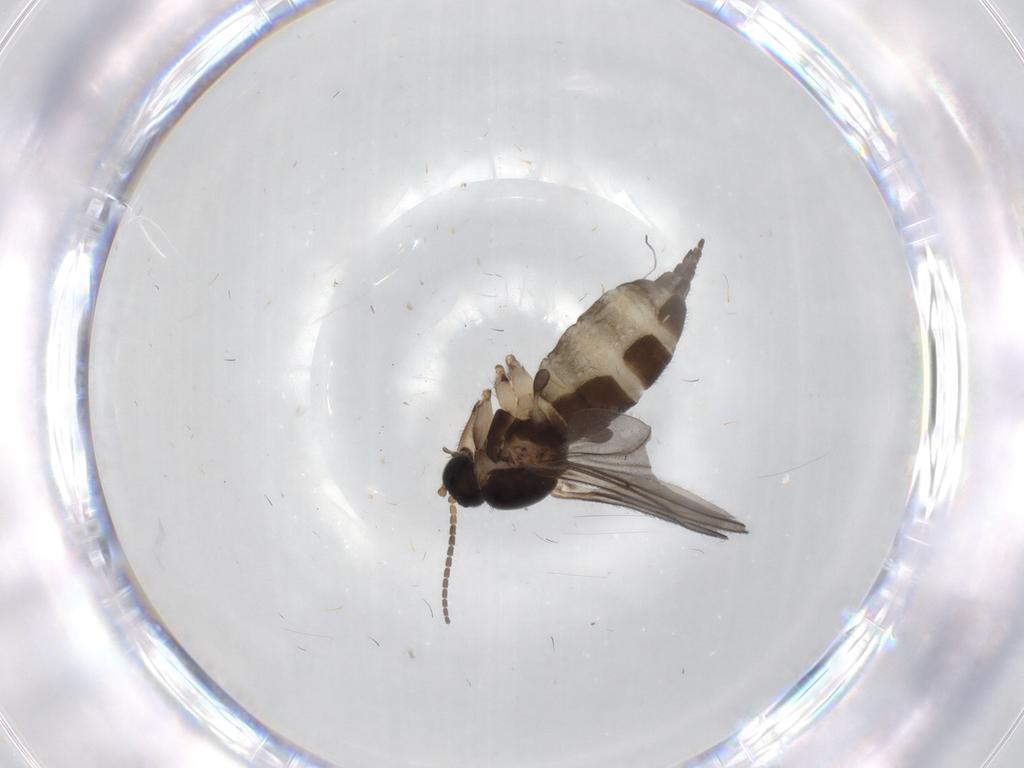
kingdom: Animalia
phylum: Arthropoda
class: Insecta
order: Diptera
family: Sciaridae
